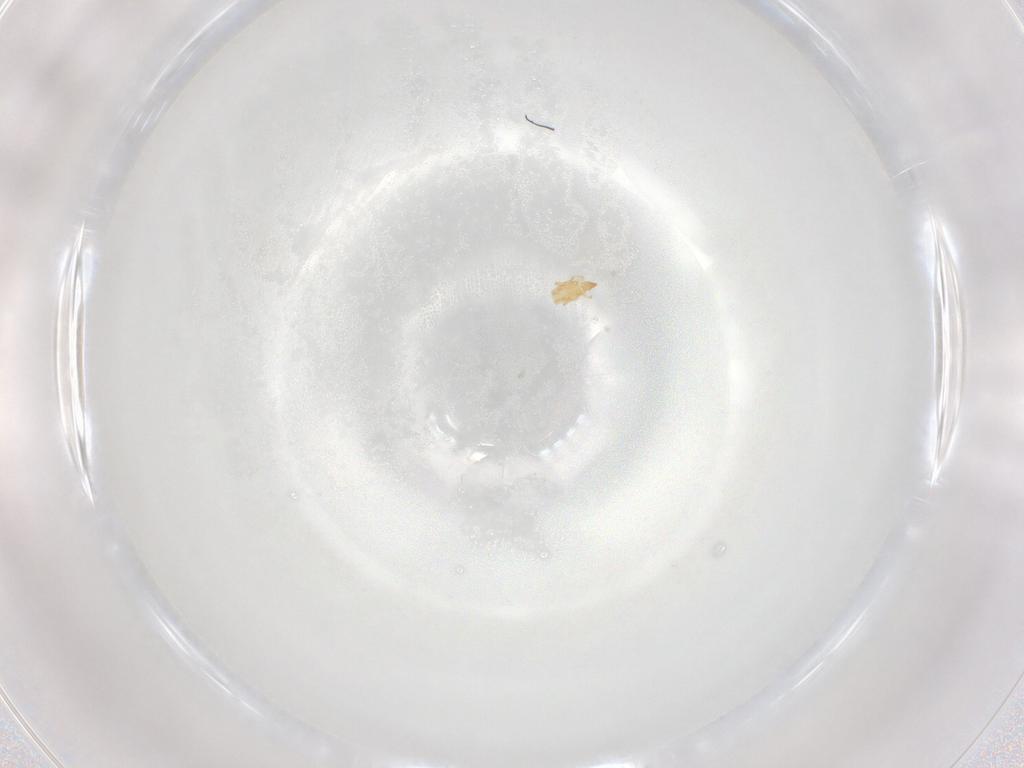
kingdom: Animalia
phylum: Arthropoda
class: Arachnida
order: Trombidiformes
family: Cunaxidae
